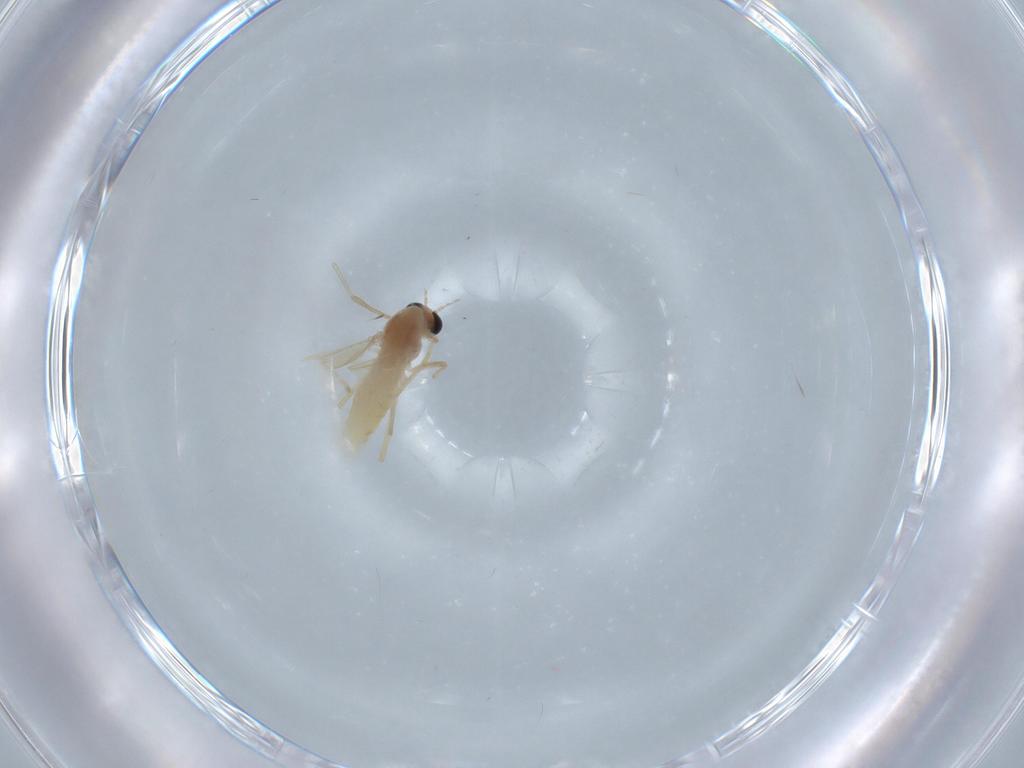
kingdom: Animalia
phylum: Arthropoda
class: Insecta
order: Diptera
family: Chironomidae
